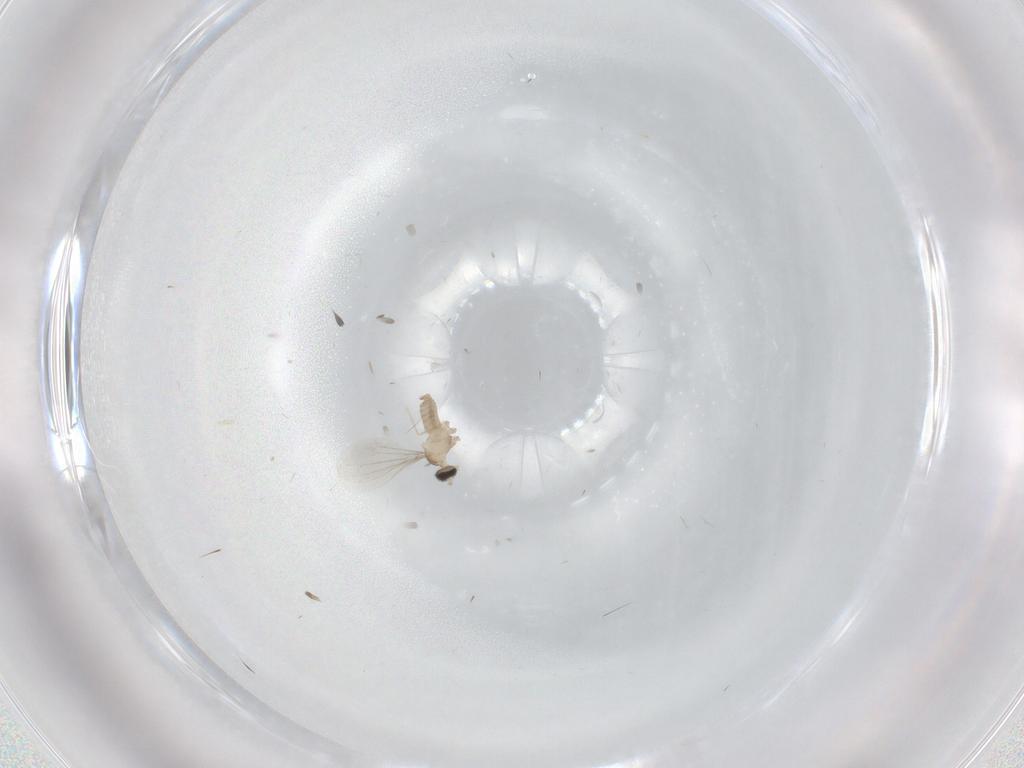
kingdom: Animalia
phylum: Arthropoda
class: Insecta
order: Diptera
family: Cecidomyiidae
